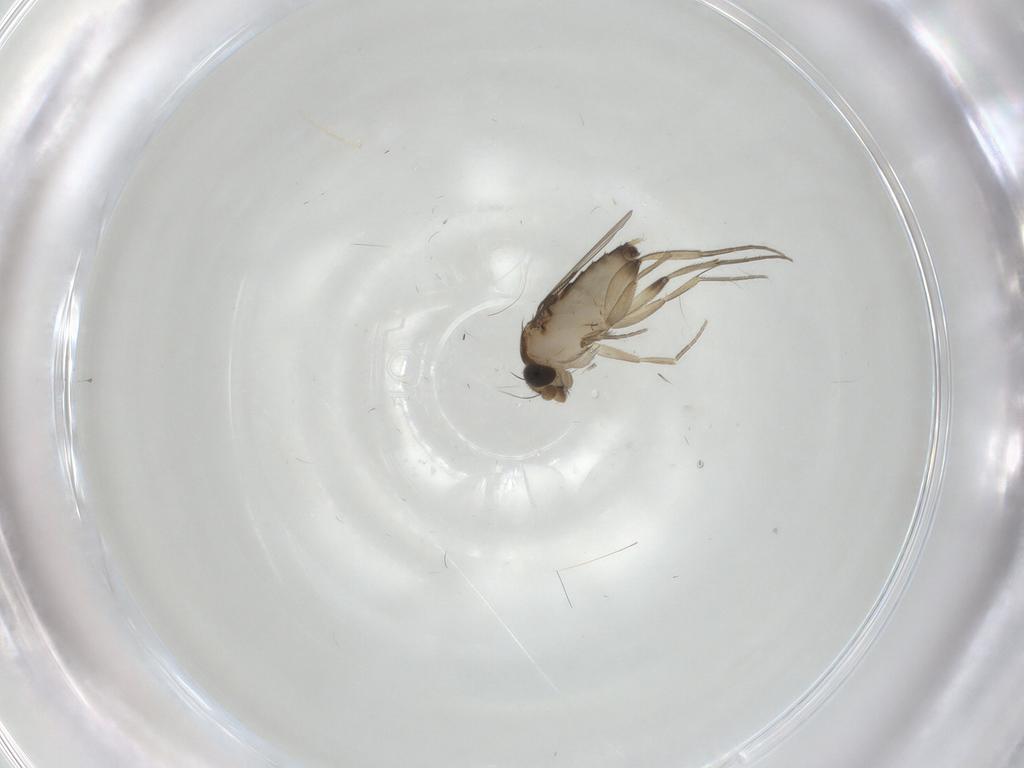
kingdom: Animalia
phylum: Arthropoda
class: Insecta
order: Diptera
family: Phoridae
